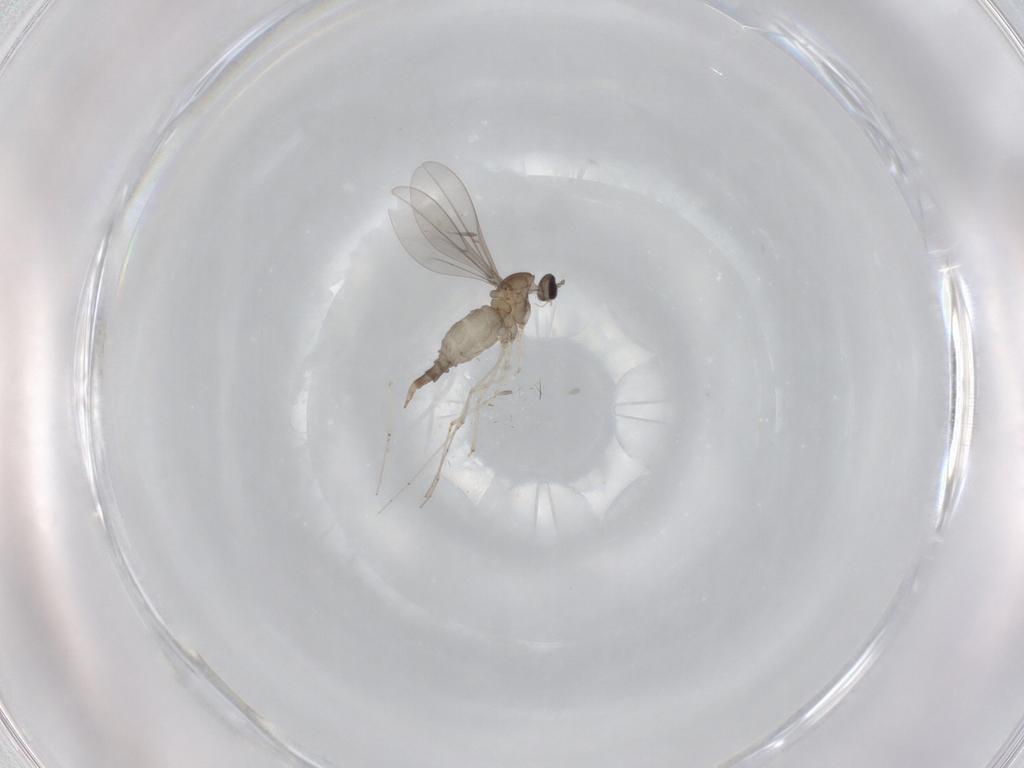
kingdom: Animalia
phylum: Arthropoda
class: Insecta
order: Diptera
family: Cecidomyiidae
